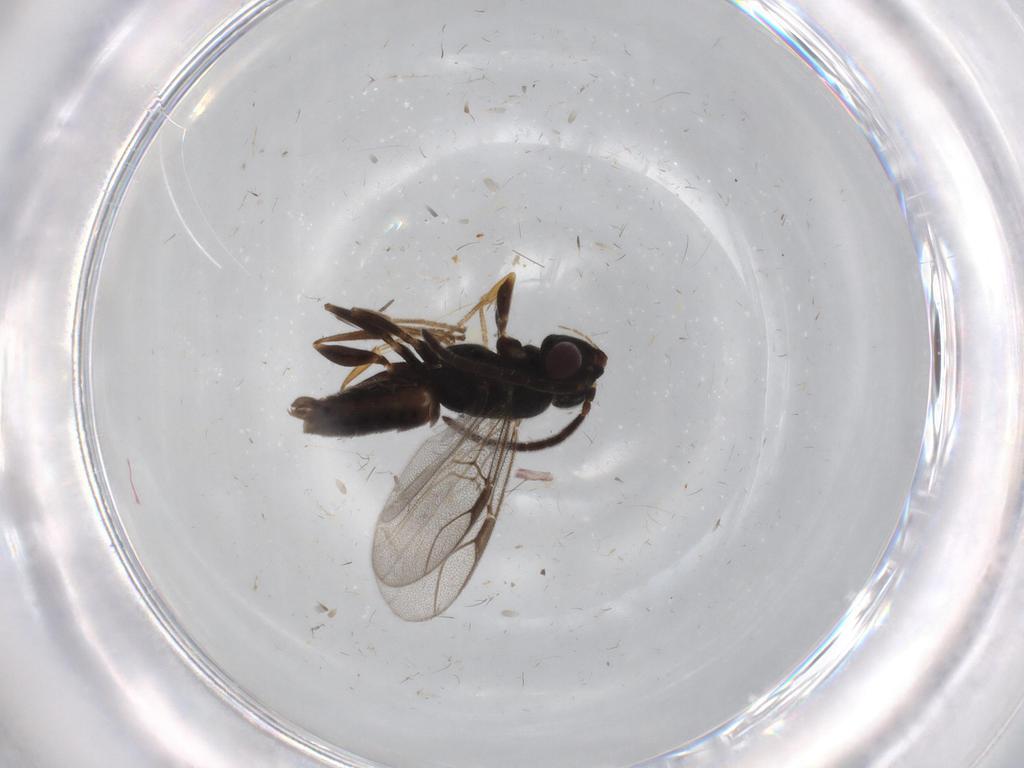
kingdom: Animalia
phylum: Arthropoda
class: Insecta
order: Hymenoptera
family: Dryinidae
